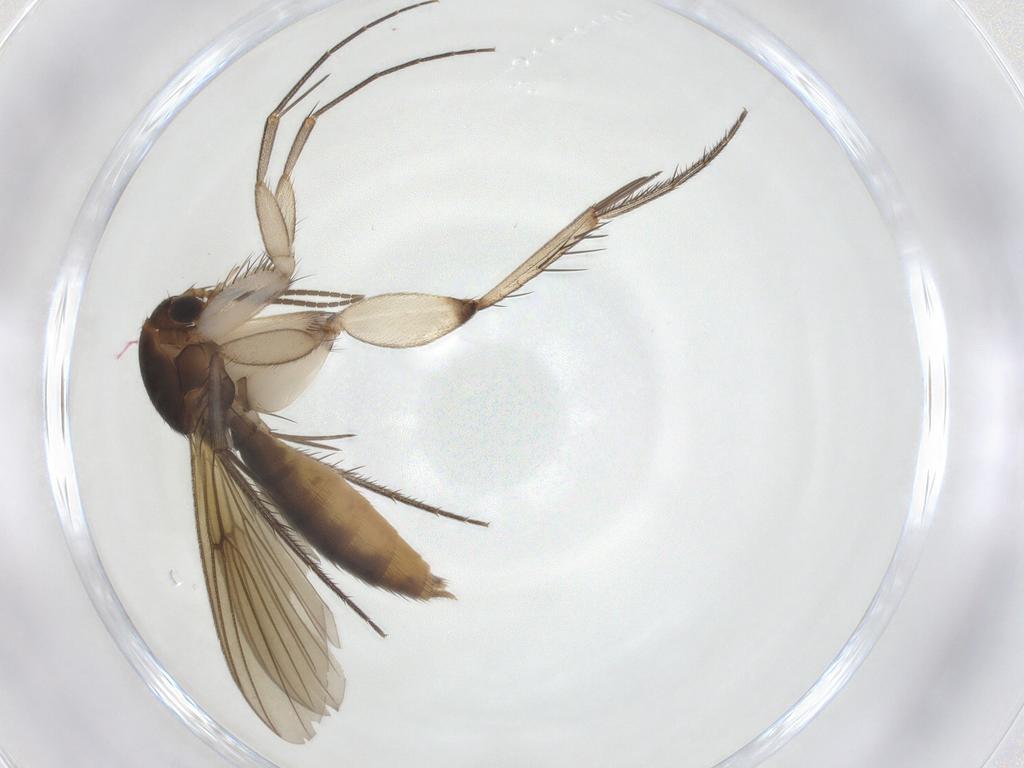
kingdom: Animalia
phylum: Arthropoda
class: Insecta
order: Diptera
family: Mycetophilidae
